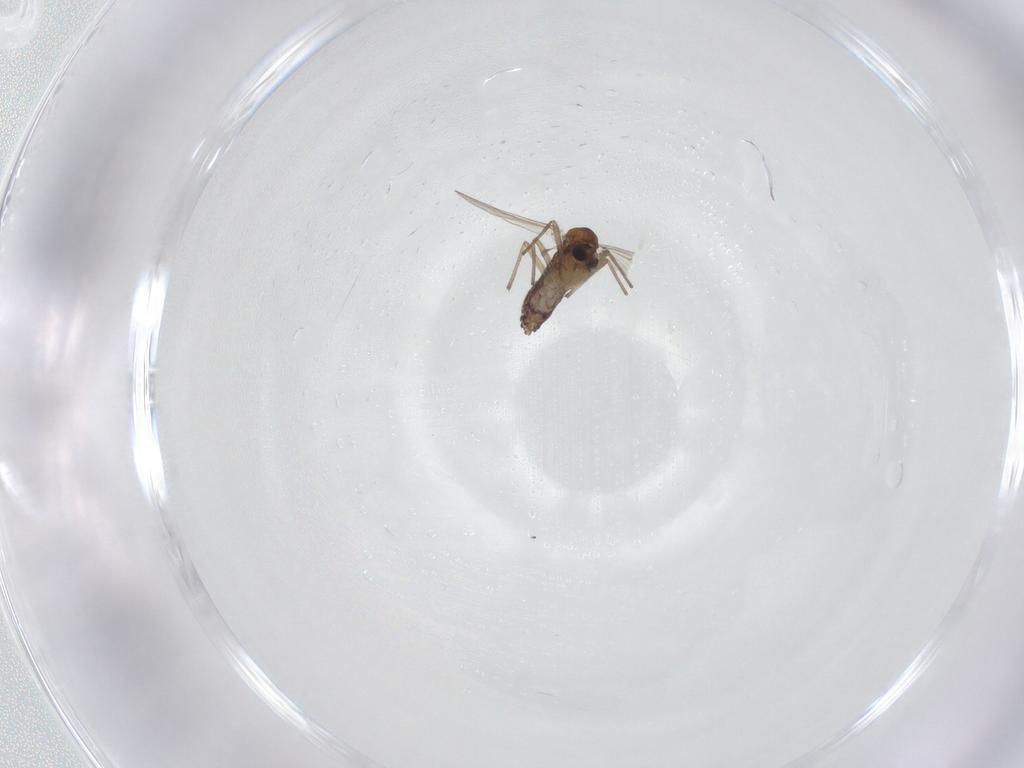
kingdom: Animalia
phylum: Arthropoda
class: Insecta
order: Diptera
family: Chironomidae
